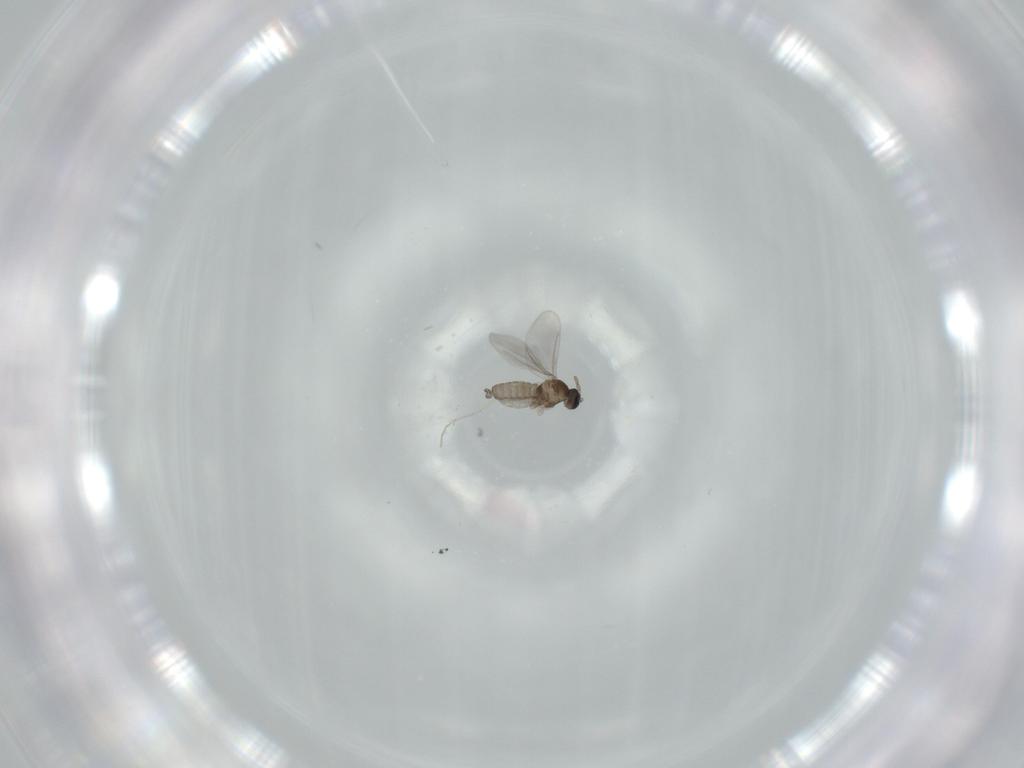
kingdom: Animalia
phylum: Arthropoda
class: Insecta
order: Diptera
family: Cecidomyiidae
